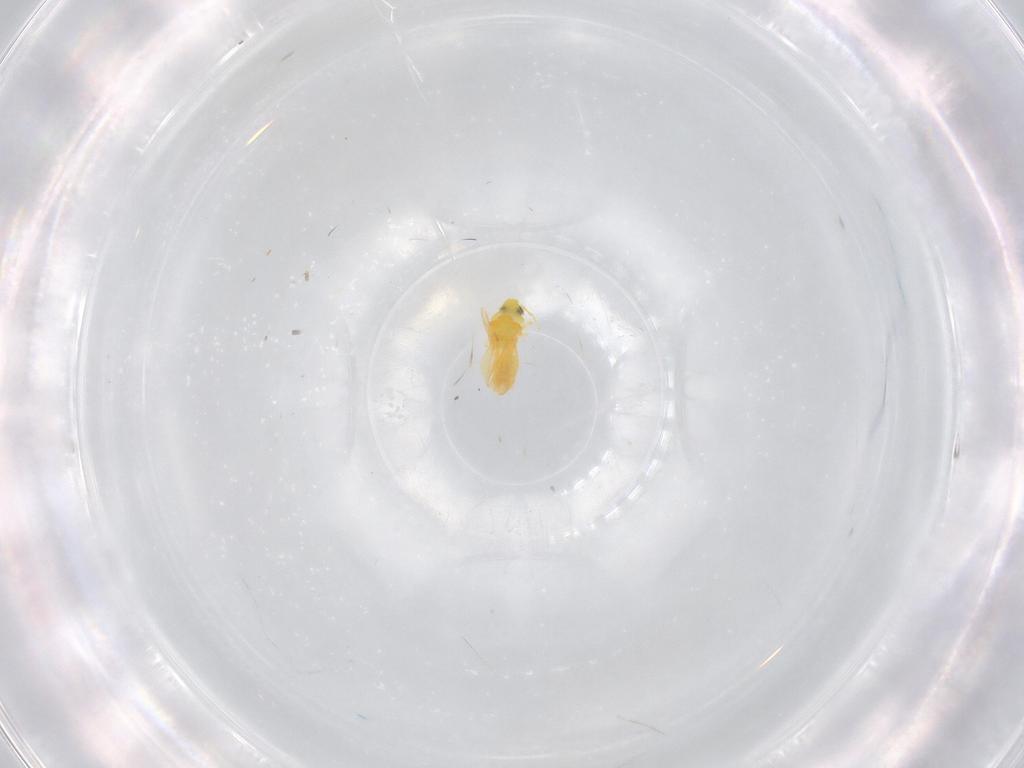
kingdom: Animalia
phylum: Arthropoda
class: Insecta
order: Hemiptera
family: Aleyrodidae
